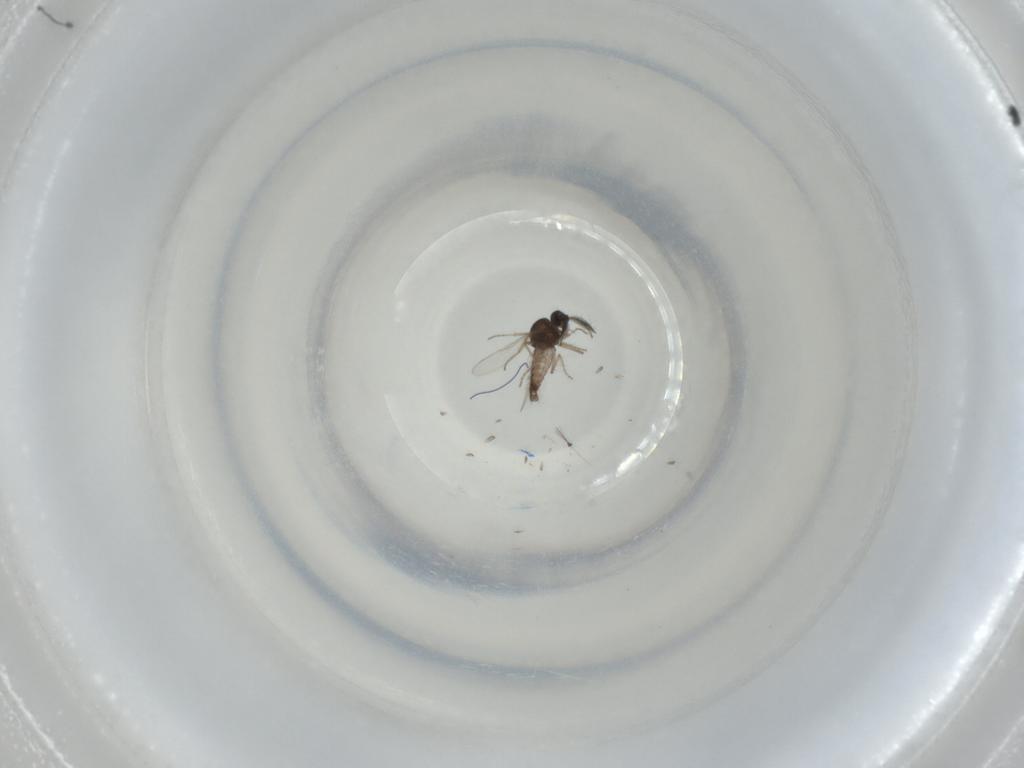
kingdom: Animalia
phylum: Arthropoda
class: Insecta
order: Diptera
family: Ceratopogonidae
